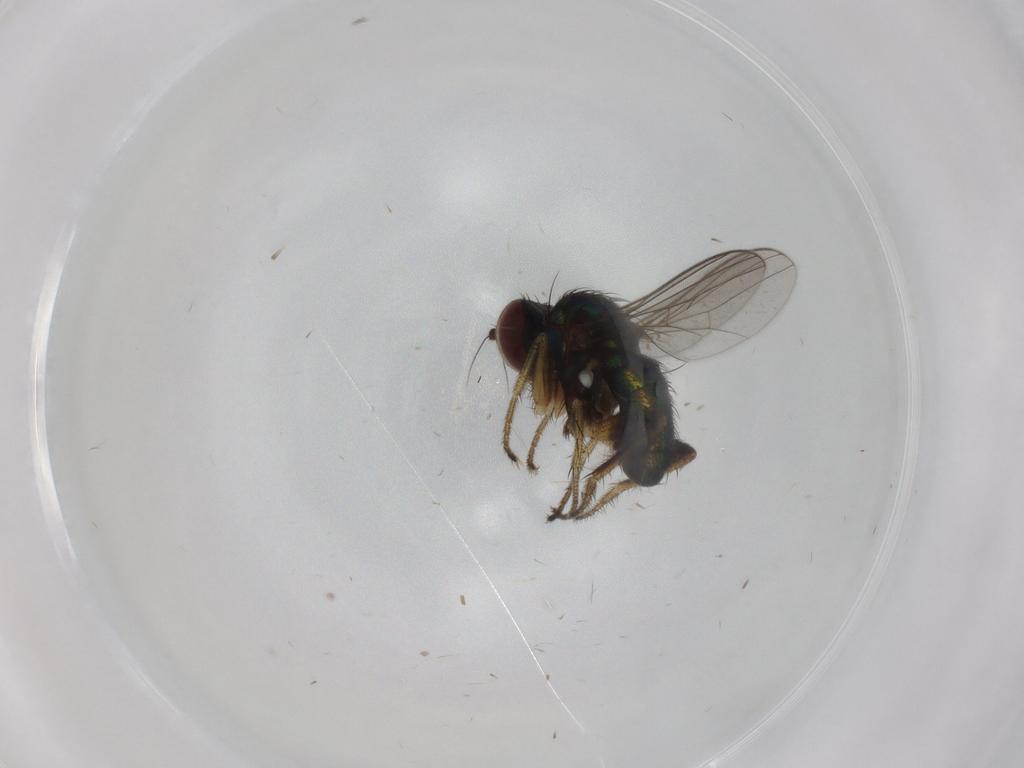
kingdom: Animalia
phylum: Arthropoda
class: Insecta
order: Diptera
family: Dolichopodidae
